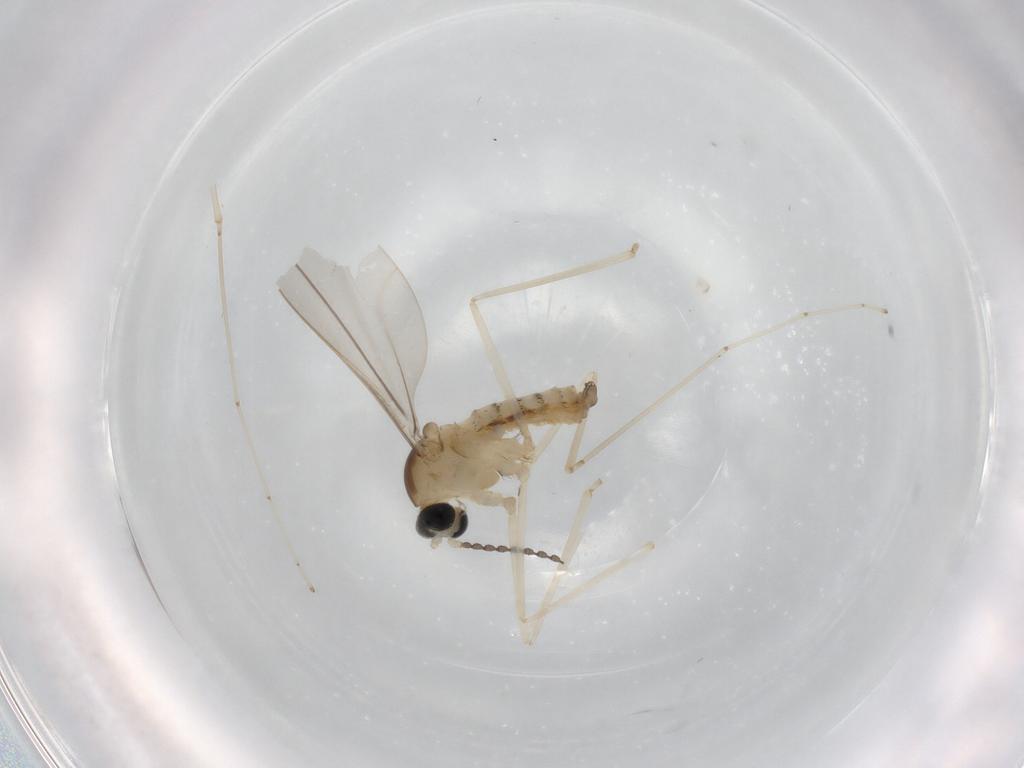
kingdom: Animalia
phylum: Arthropoda
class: Insecta
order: Diptera
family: Cecidomyiidae
